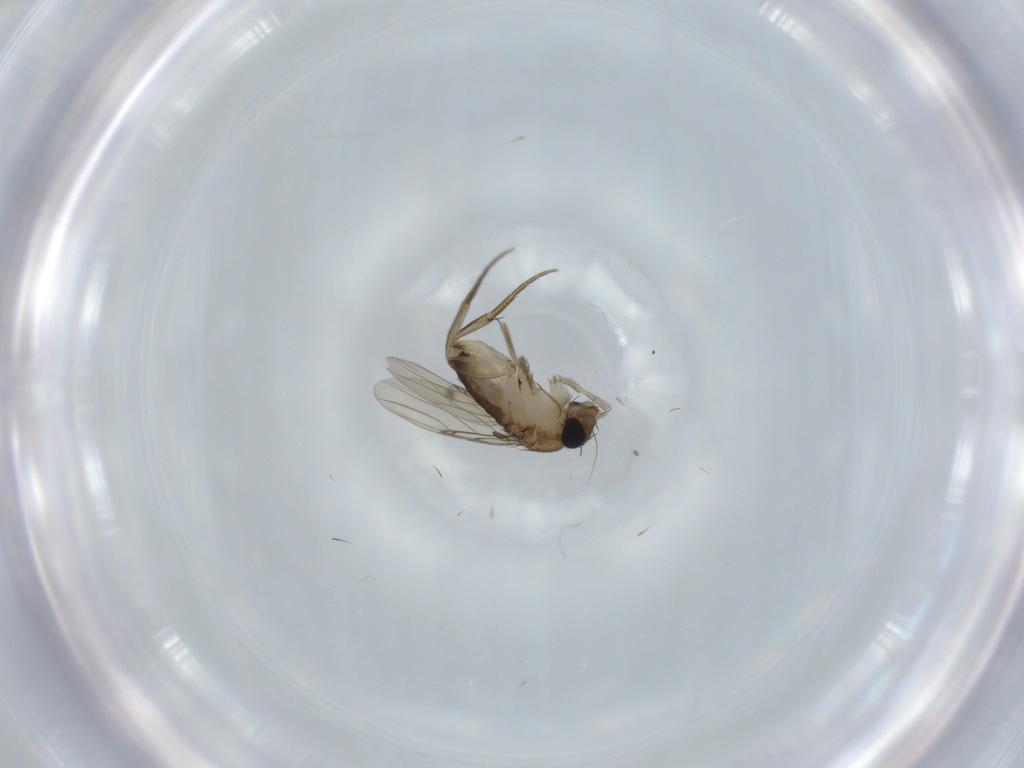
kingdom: Animalia
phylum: Arthropoda
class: Insecta
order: Diptera
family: Phoridae
